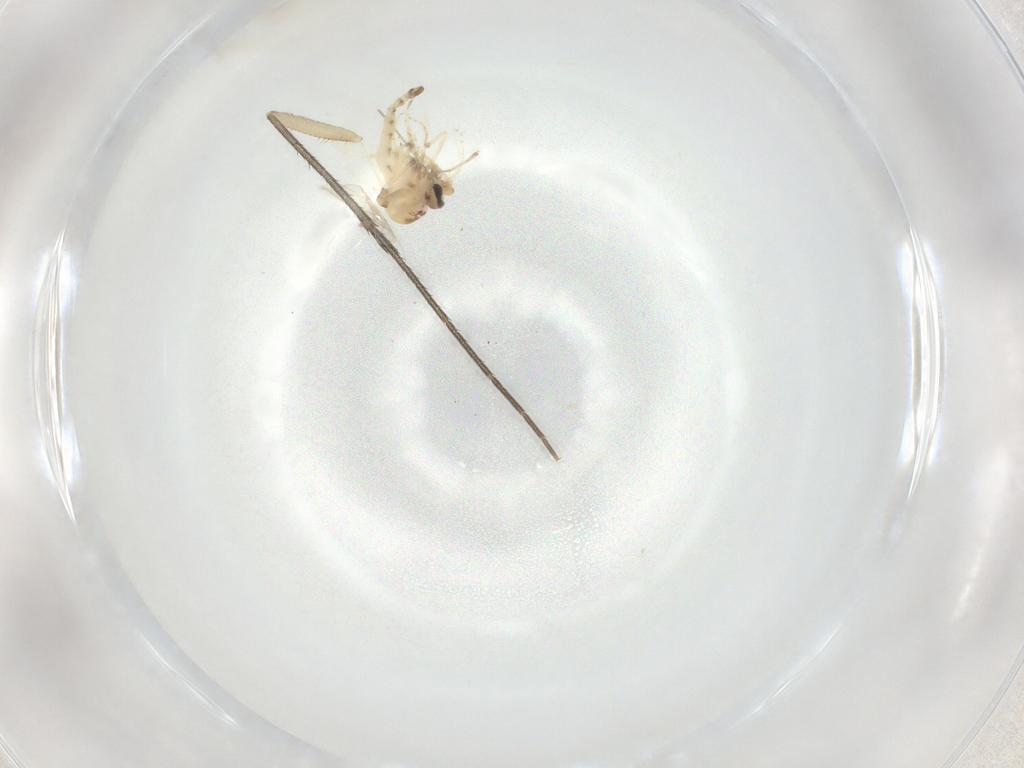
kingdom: Animalia
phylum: Arthropoda
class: Insecta
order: Diptera
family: Ceratopogonidae
